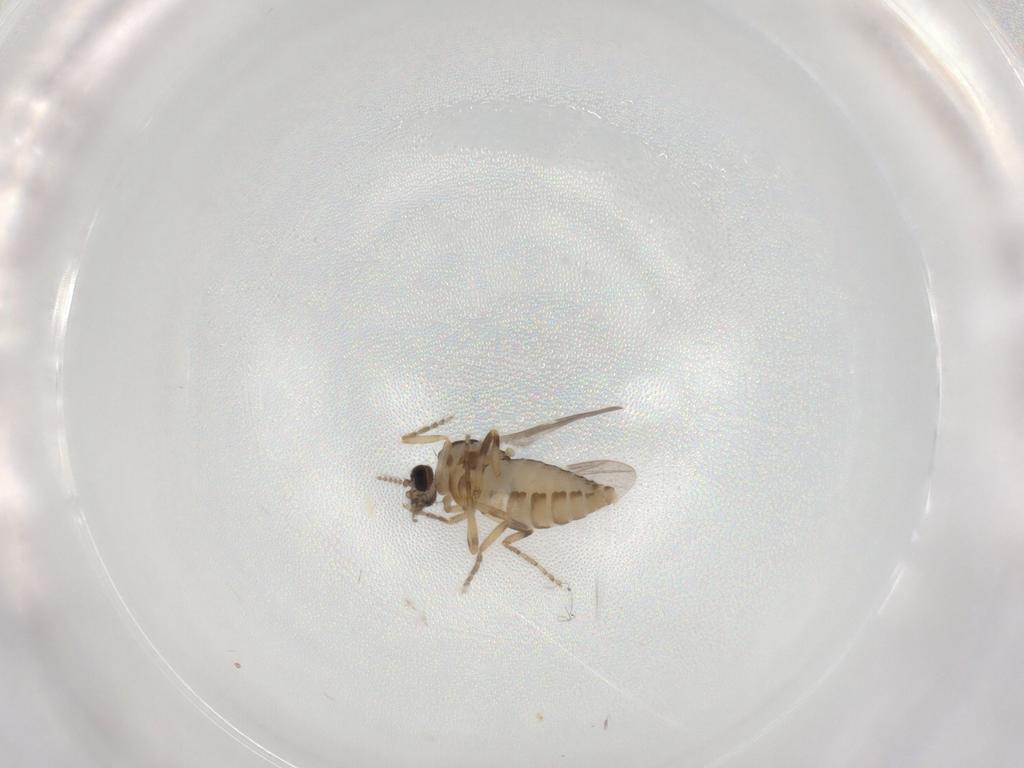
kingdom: Animalia
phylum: Arthropoda
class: Insecta
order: Diptera
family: Ceratopogonidae
